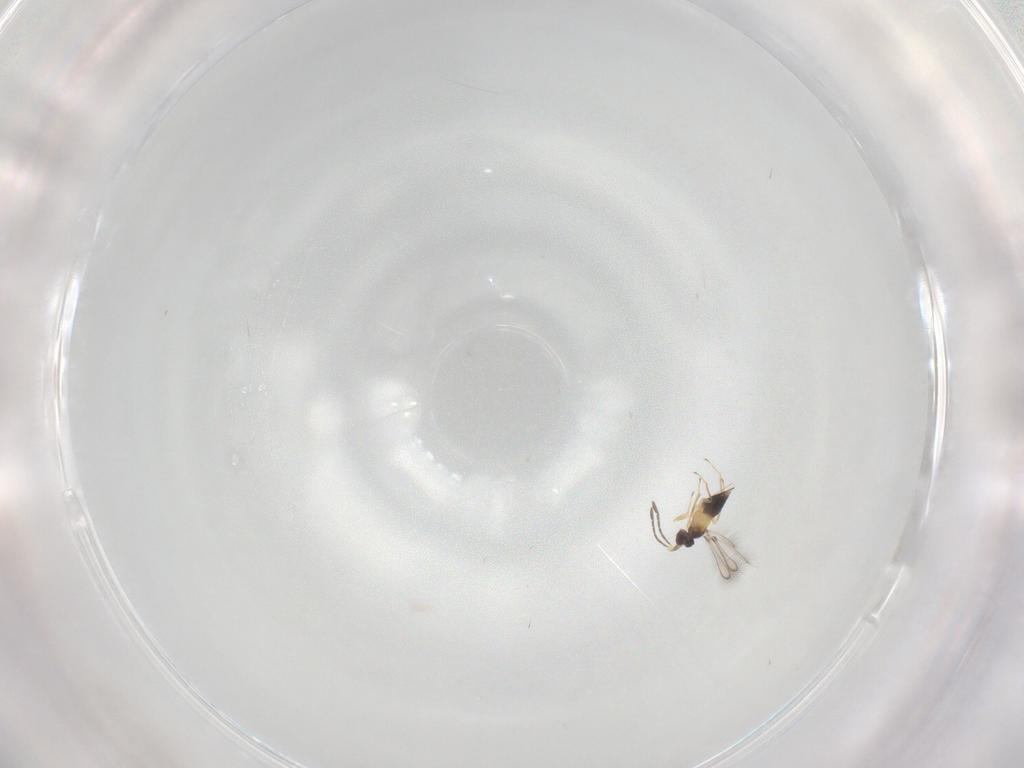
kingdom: Animalia
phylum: Arthropoda
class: Insecta
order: Hymenoptera
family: Mymaridae
